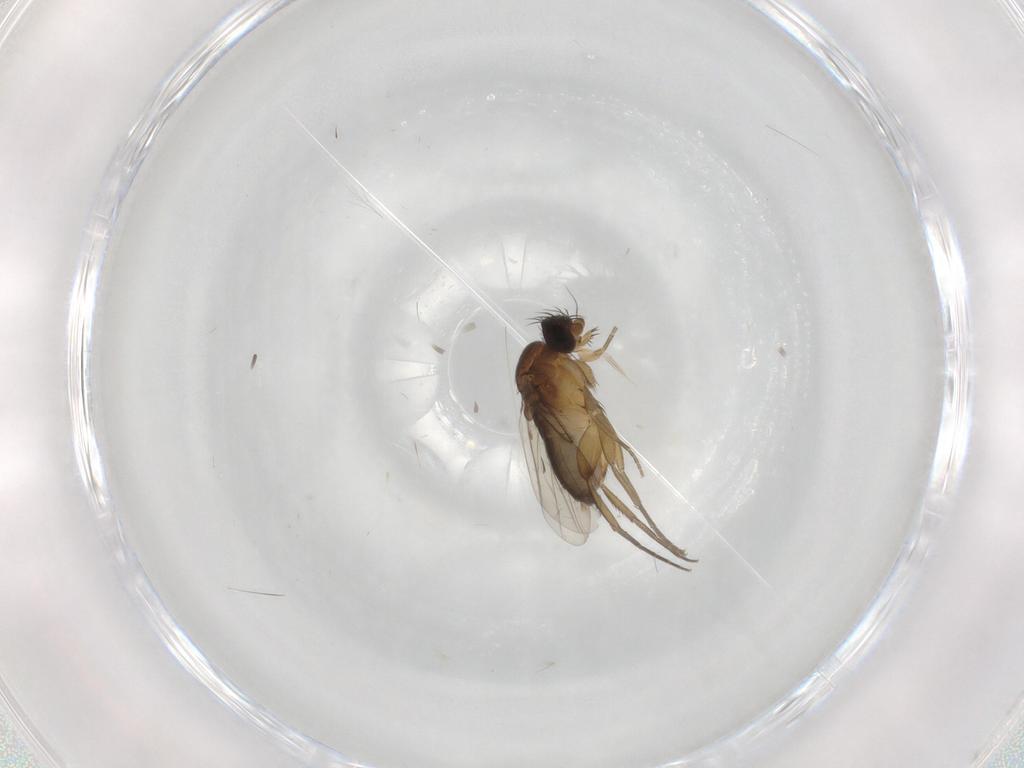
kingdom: Animalia
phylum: Arthropoda
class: Insecta
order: Diptera
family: Phoridae
